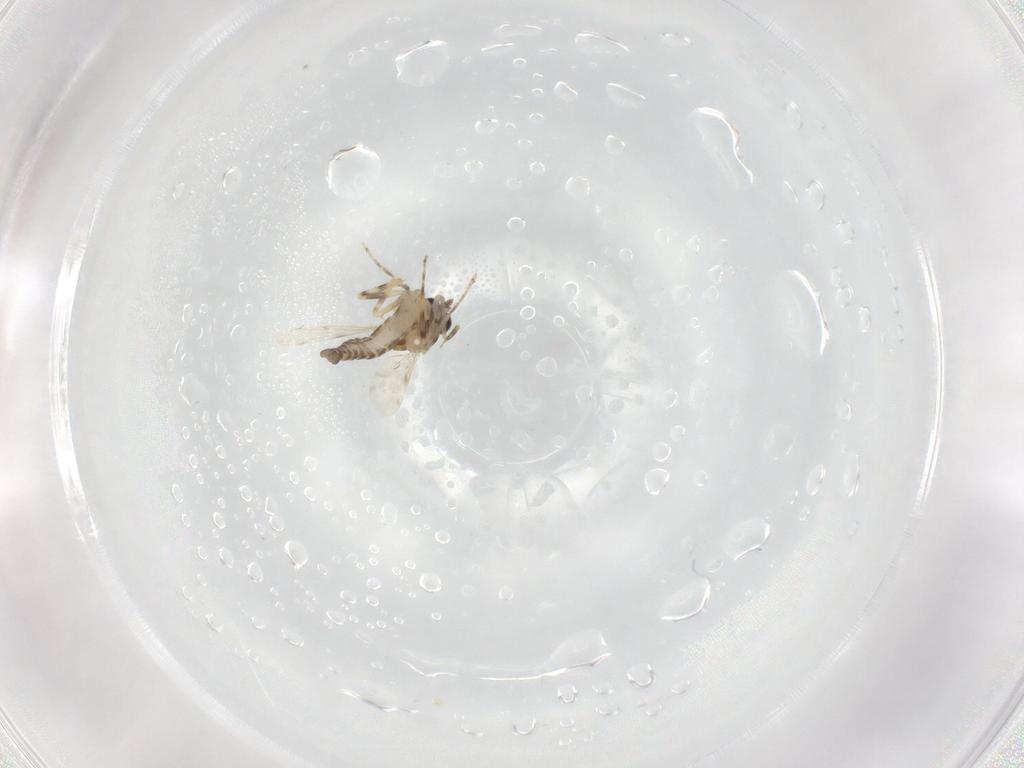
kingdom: Animalia
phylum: Arthropoda
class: Insecta
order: Diptera
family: Ceratopogonidae
